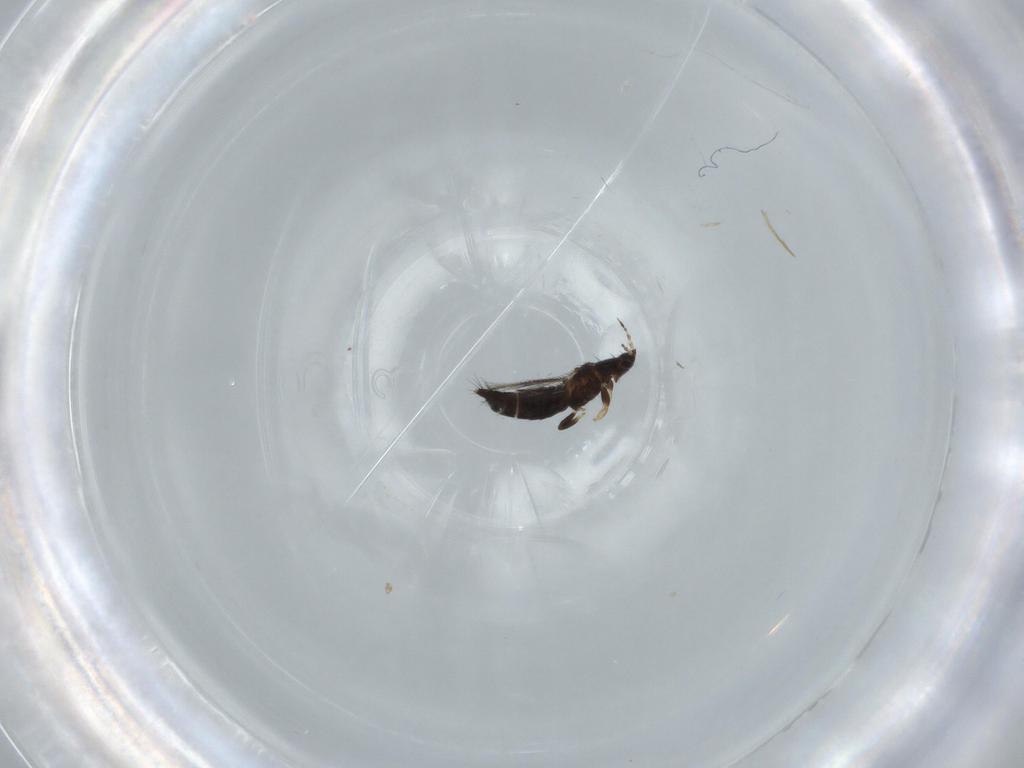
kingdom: Animalia
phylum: Arthropoda
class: Insecta
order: Thysanoptera
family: Thripidae
